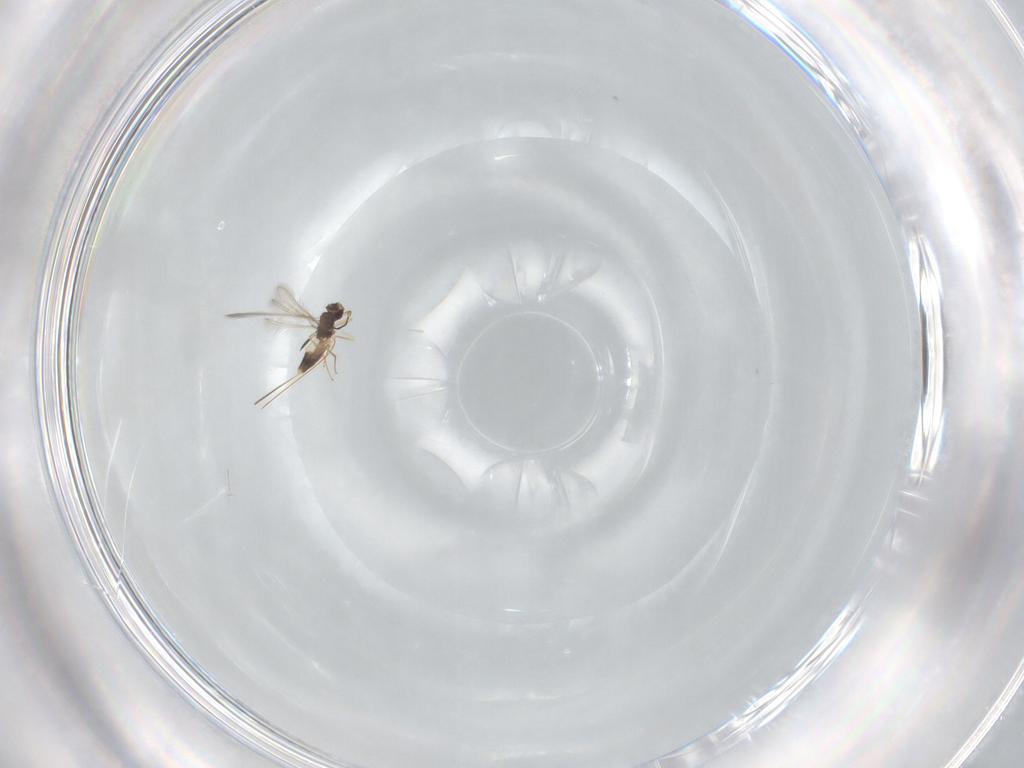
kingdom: Animalia
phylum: Arthropoda
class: Insecta
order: Hymenoptera
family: Mymaridae
